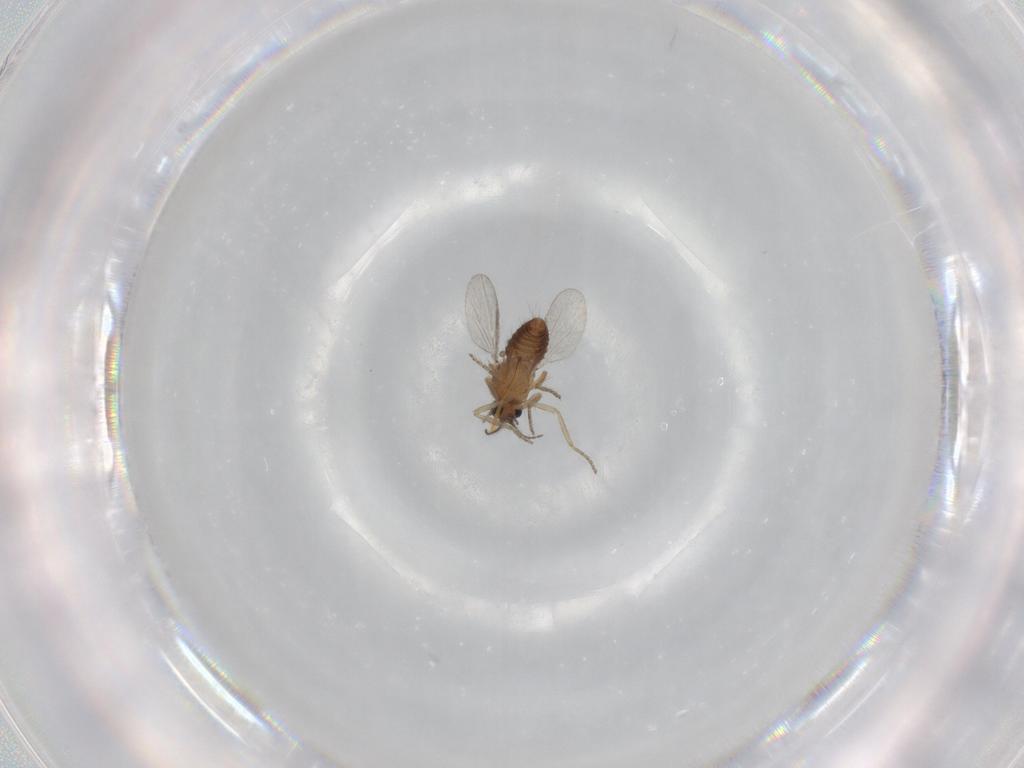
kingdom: Animalia
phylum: Arthropoda
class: Insecta
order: Diptera
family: Ceratopogonidae
